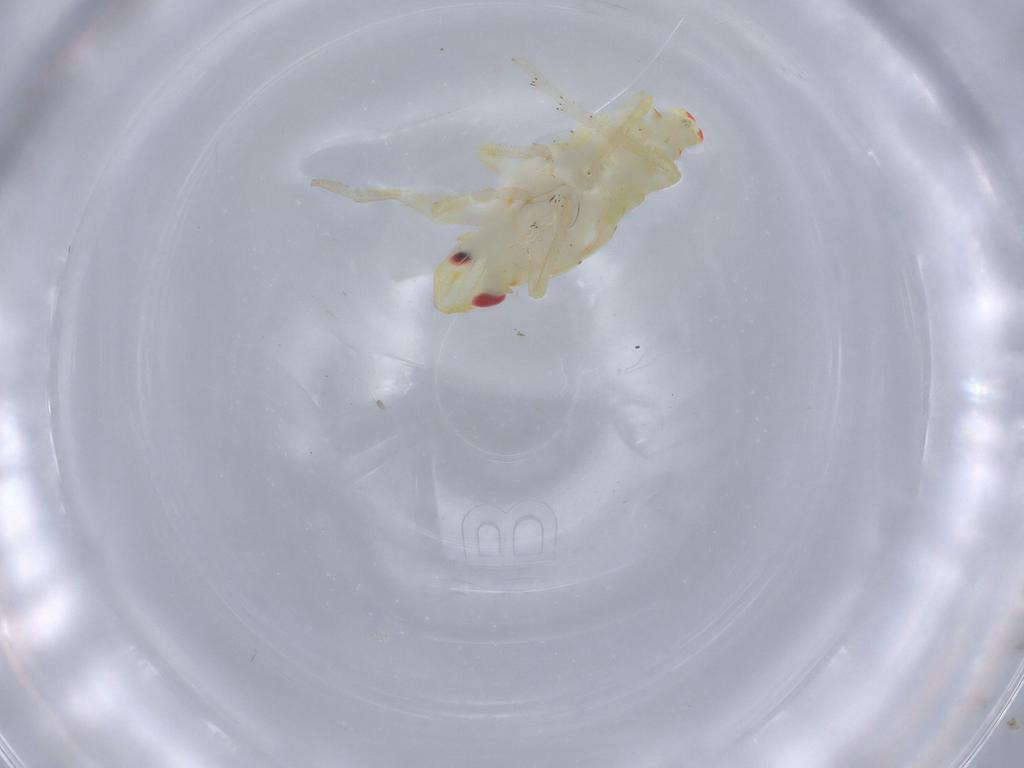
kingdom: Animalia
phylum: Arthropoda
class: Insecta
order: Hemiptera
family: Tropiduchidae
